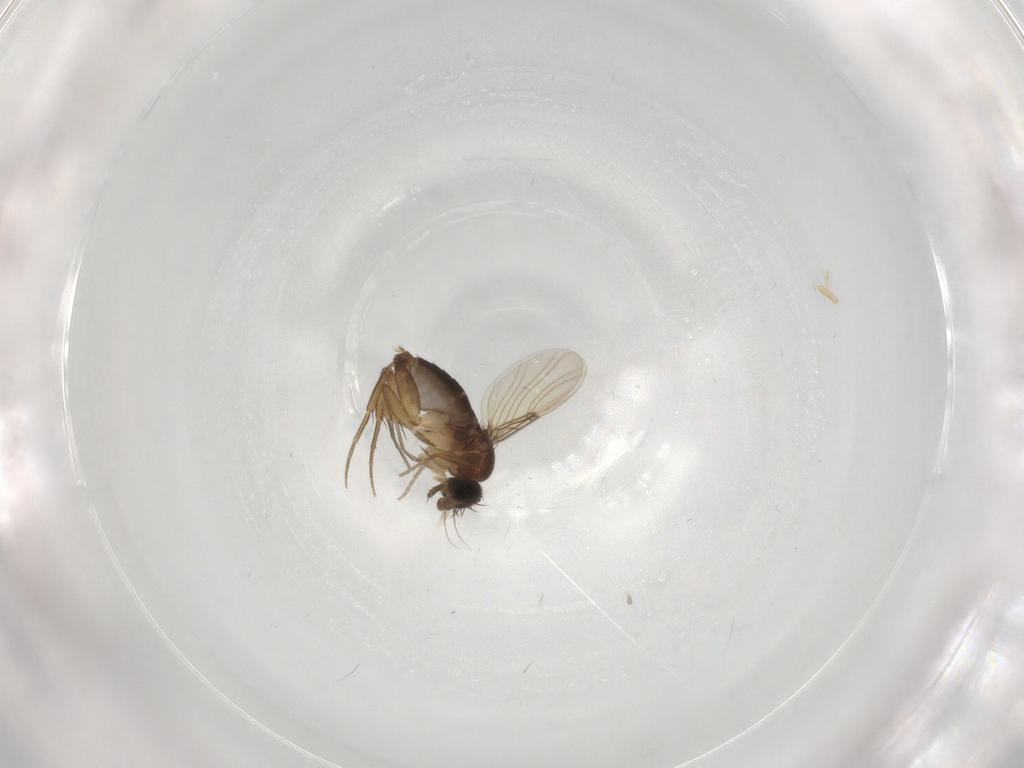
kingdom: Animalia
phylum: Arthropoda
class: Insecta
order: Diptera
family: Phoridae
